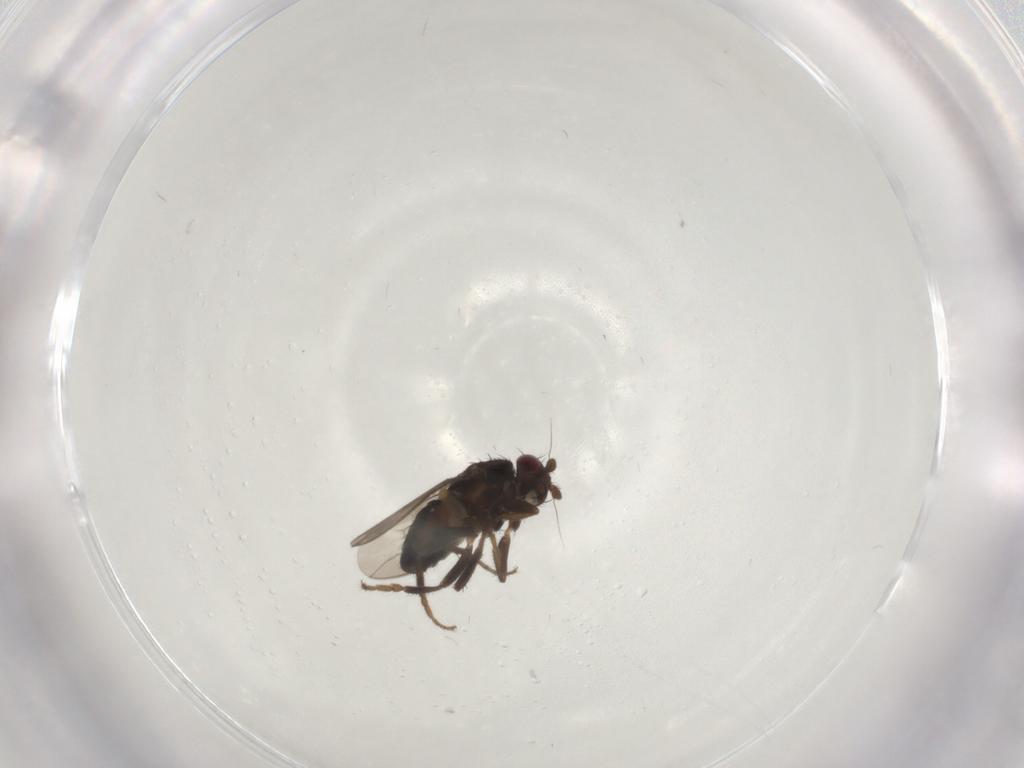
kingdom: Animalia
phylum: Arthropoda
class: Insecta
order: Diptera
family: Sphaeroceridae
